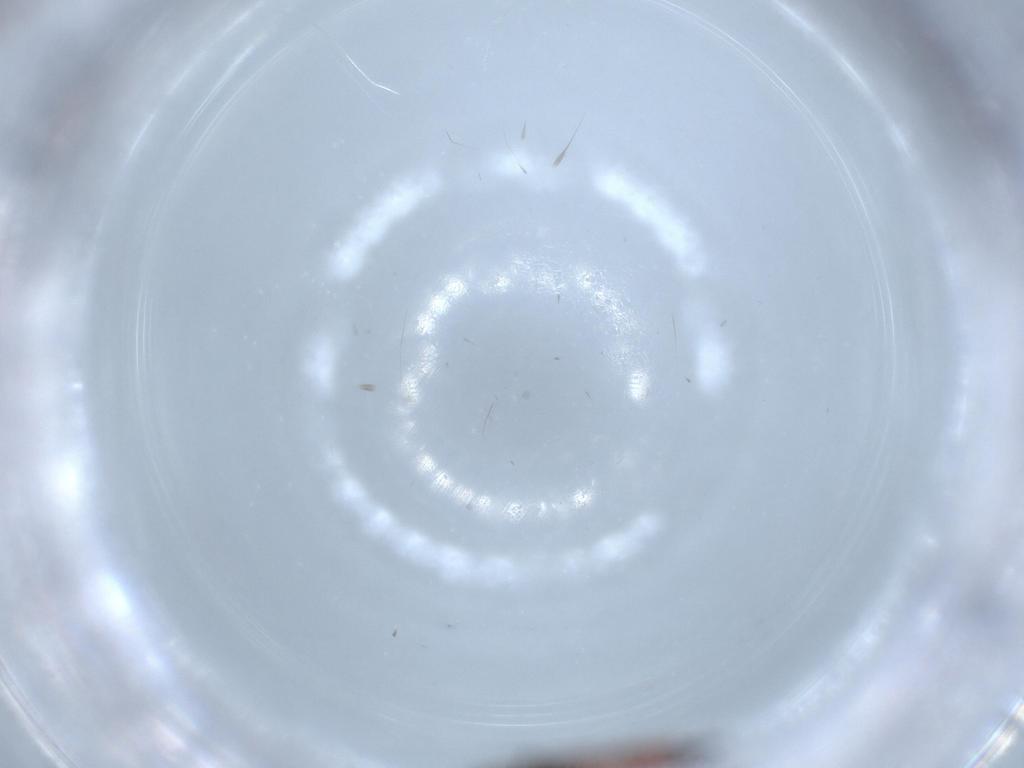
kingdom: Animalia
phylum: Arthropoda
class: Insecta
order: Thysanoptera
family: Aeolothripidae
